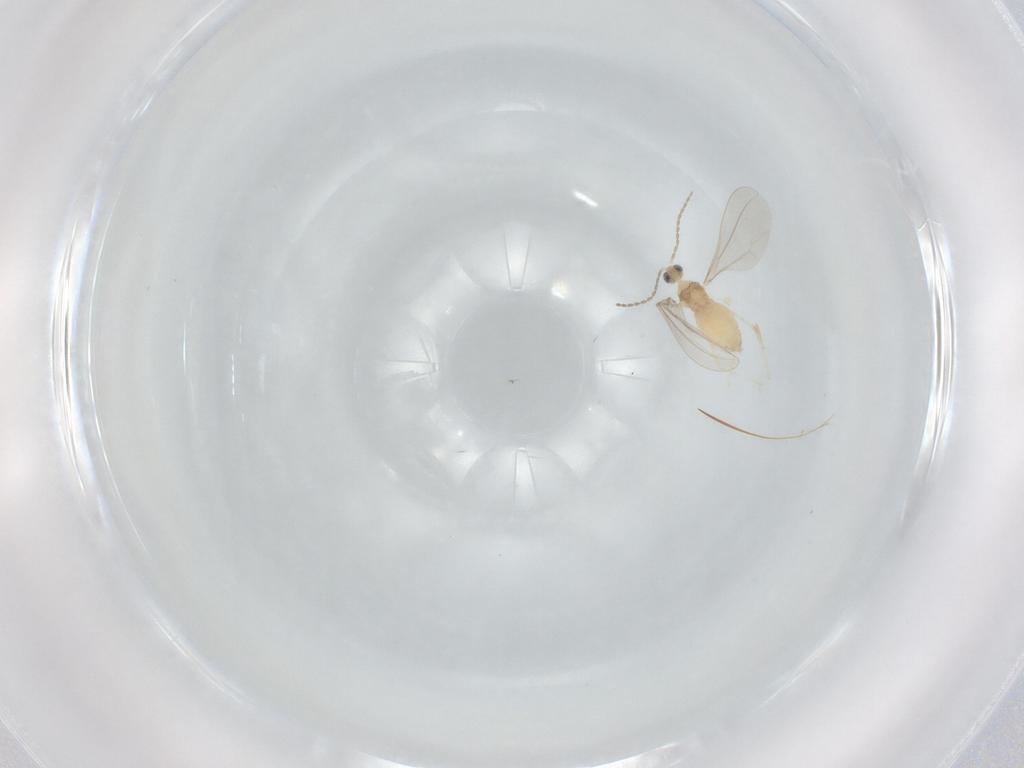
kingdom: Animalia
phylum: Arthropoda
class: Insecta
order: Diptera
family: Cecidomyiidae
